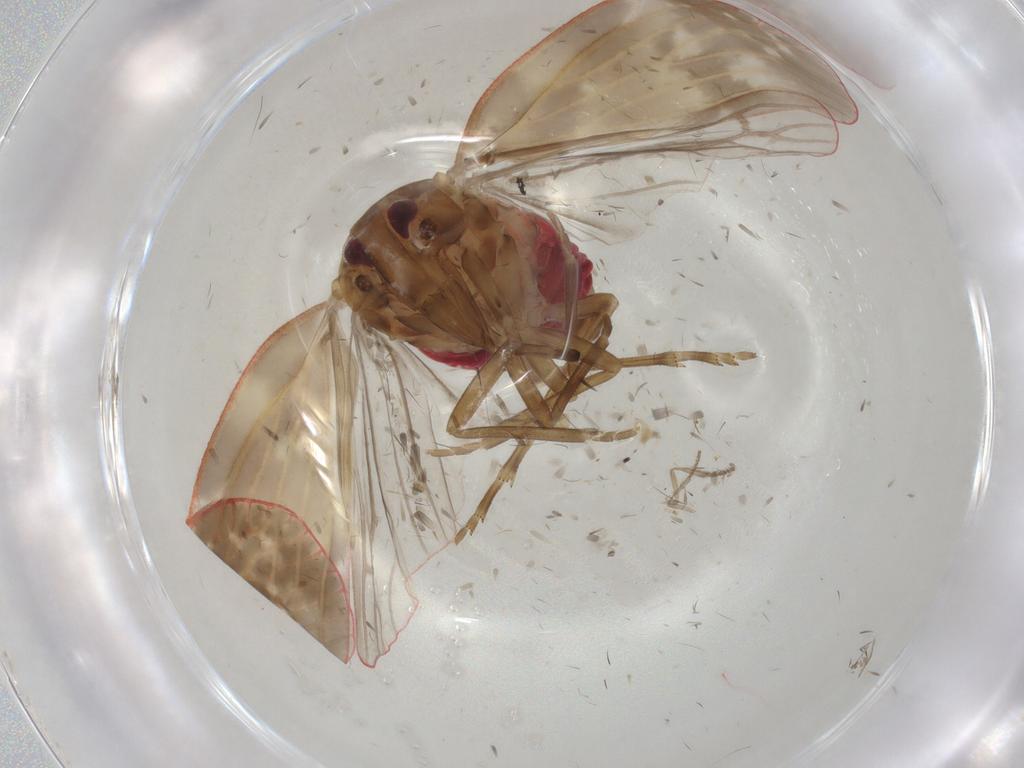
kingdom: Animalia
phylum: Arthropoda
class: Insecta
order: Hemiptera
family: Achilidae
